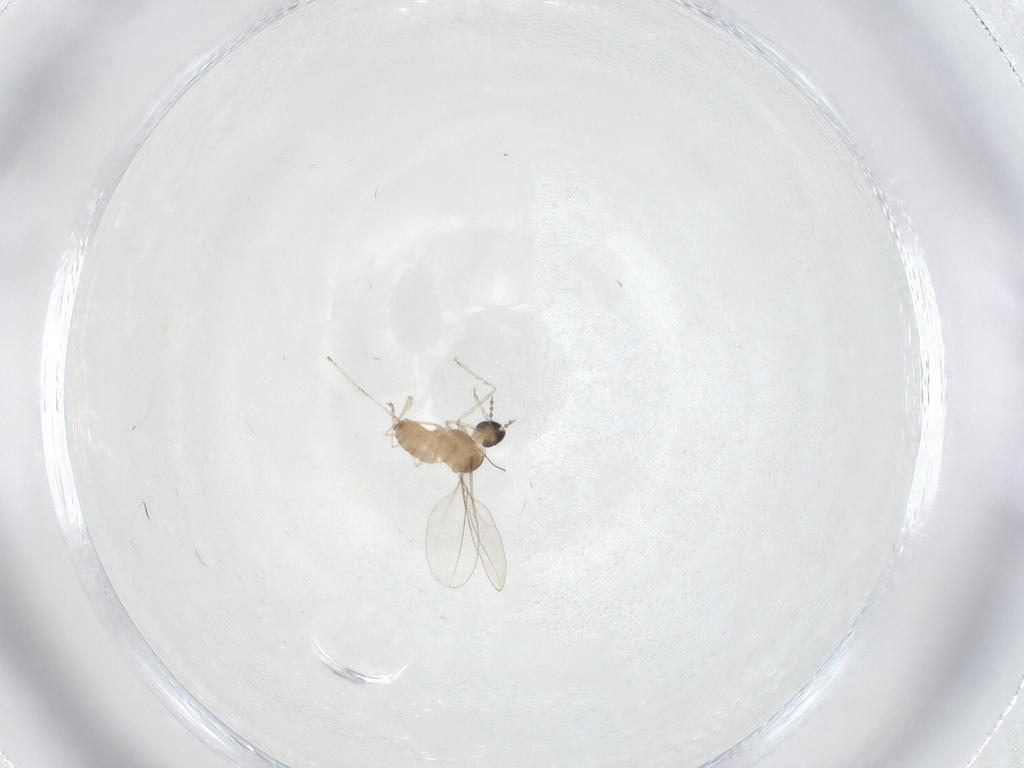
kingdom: Animalia
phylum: Arthropoda
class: Insecta
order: Diptera
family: Cecidomyiidae
